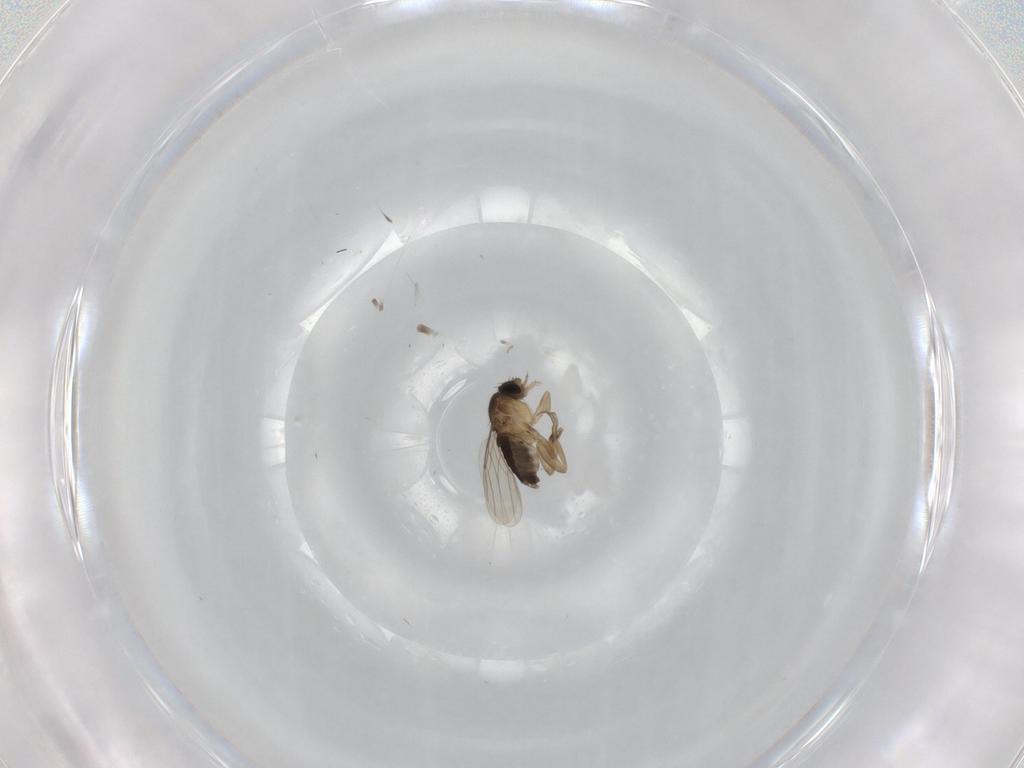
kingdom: Animalia
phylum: Arthropoda
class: Insecta
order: Diptera
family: Phoridae
